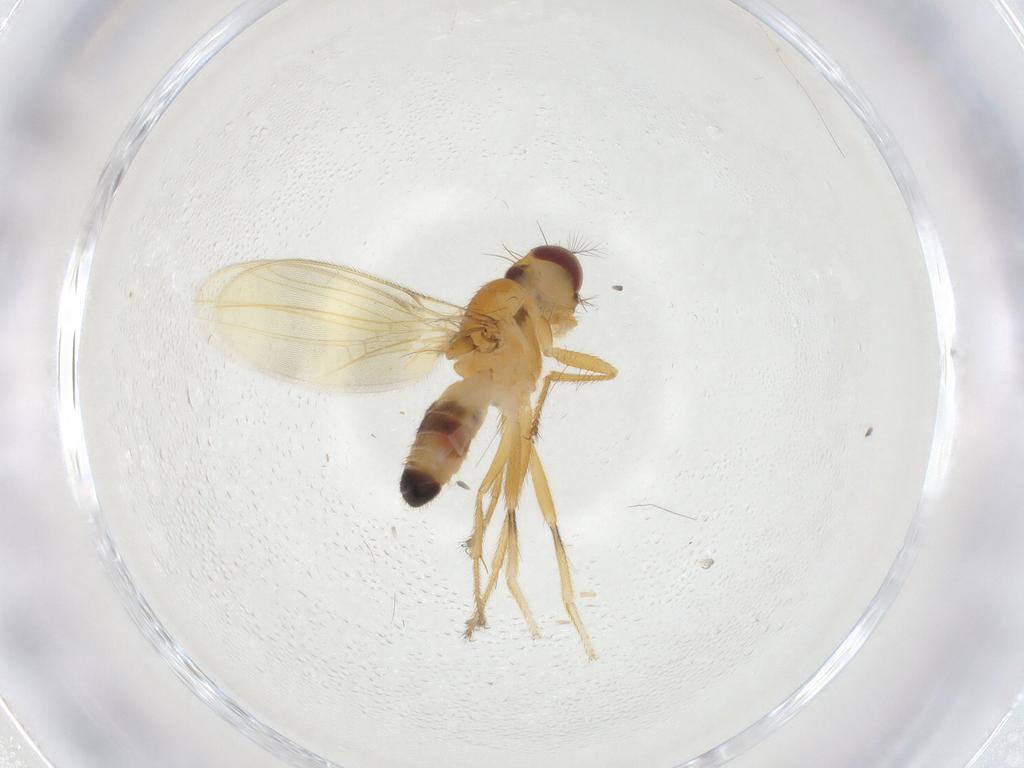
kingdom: Animalia
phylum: Arthropoda
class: Insecta
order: Diptera
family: Periscelididae
